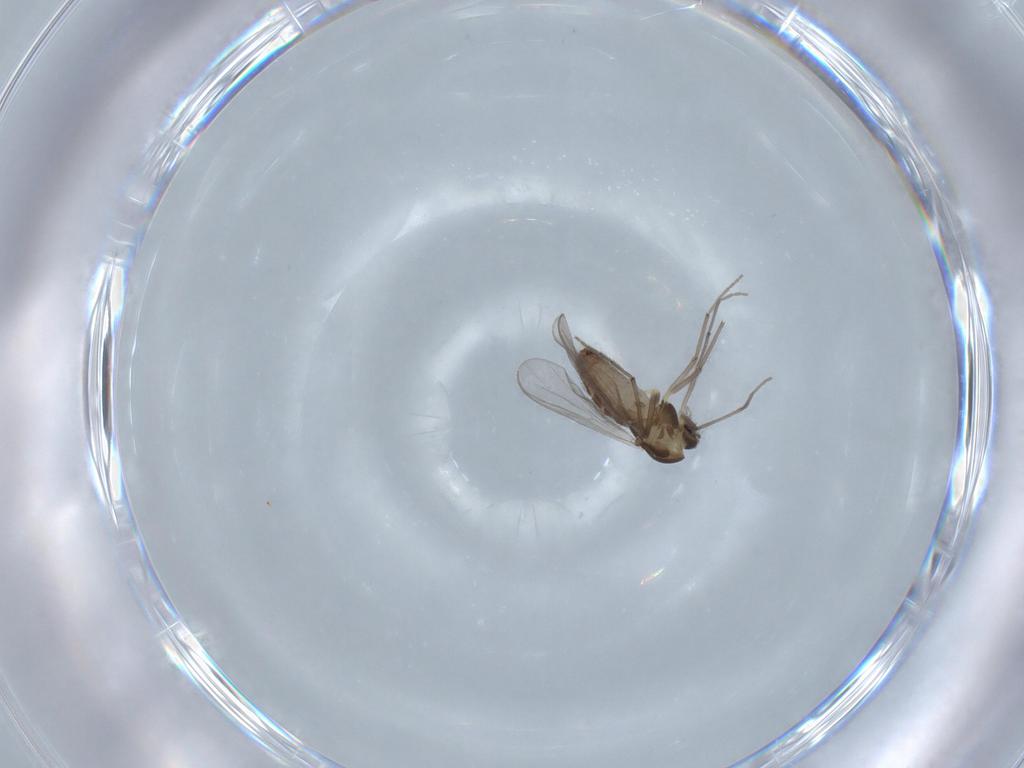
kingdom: Animalia
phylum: Arthropoda
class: Insecta
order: Diptera
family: Chironomidae
